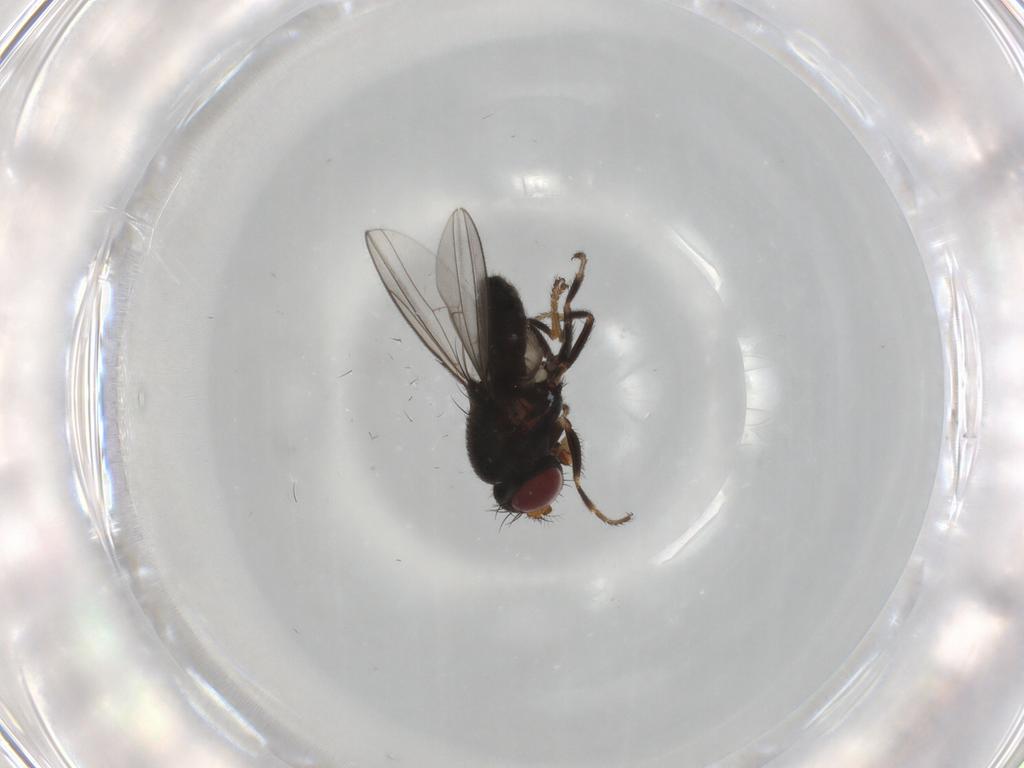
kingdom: Animalia
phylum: Arthropoda
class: Insecta
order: Diptera
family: Ephydridae
